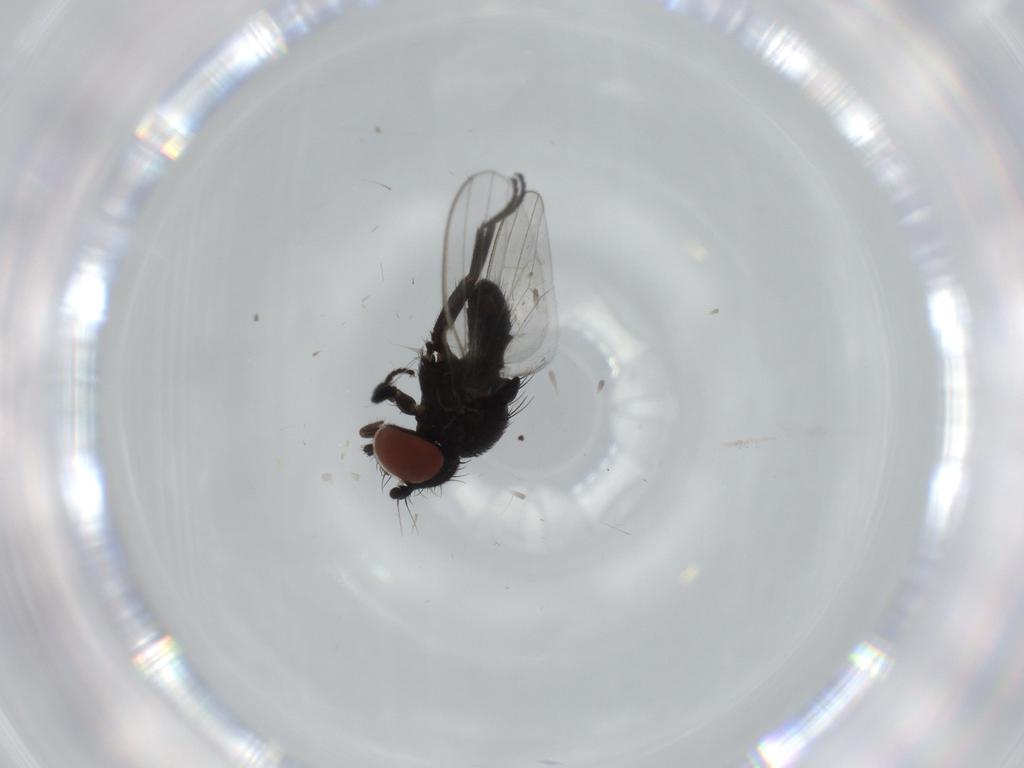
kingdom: Animalia
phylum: Arthropoda
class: Insecta
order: Diptera
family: Milichiidae
